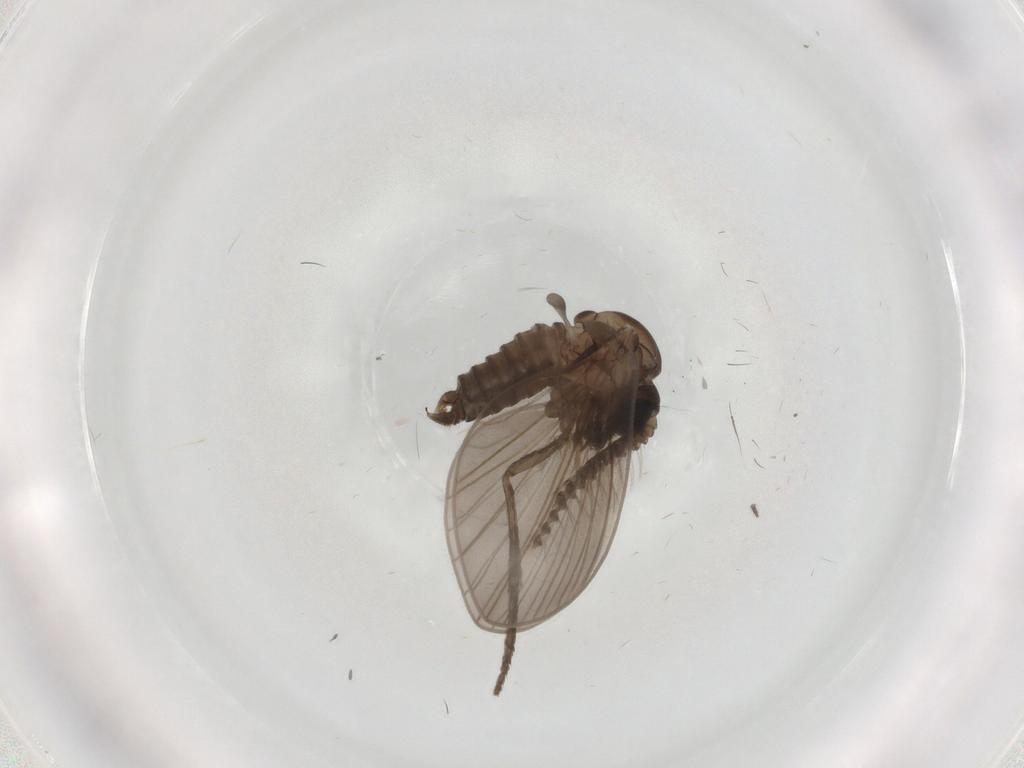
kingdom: Animalia
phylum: Arthropoda
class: Insecta
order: Diptera
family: Psychodidae
